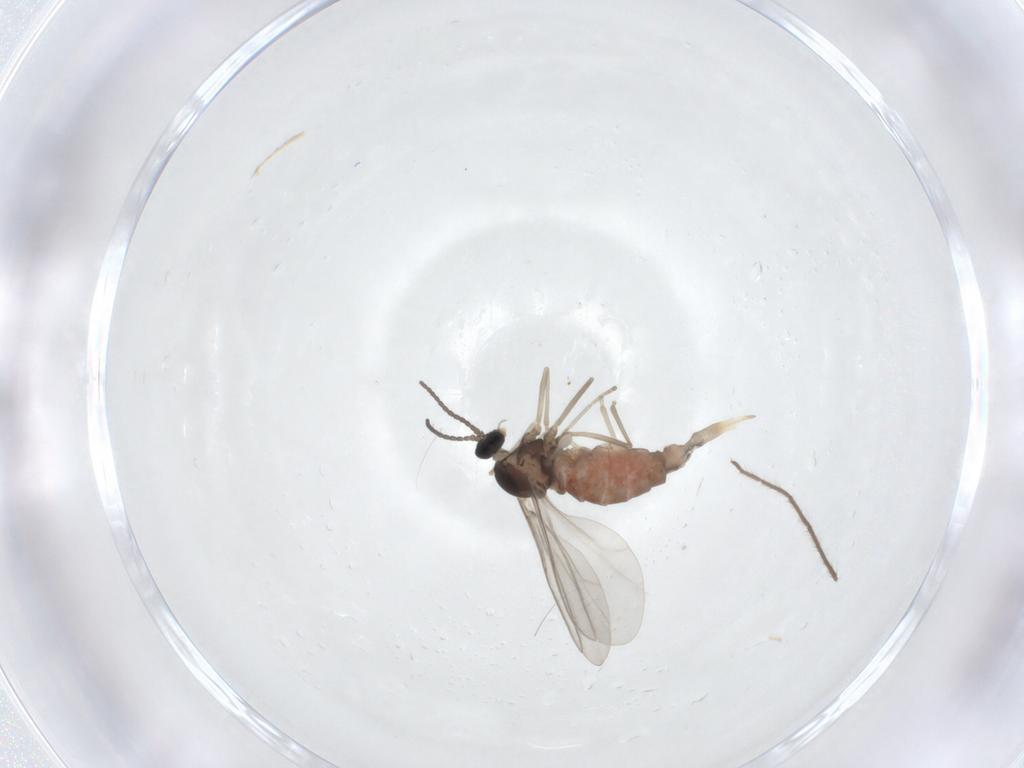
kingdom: Animalia
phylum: Arthropoda
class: Insecta
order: Diptera
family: Cecidomyiidae
